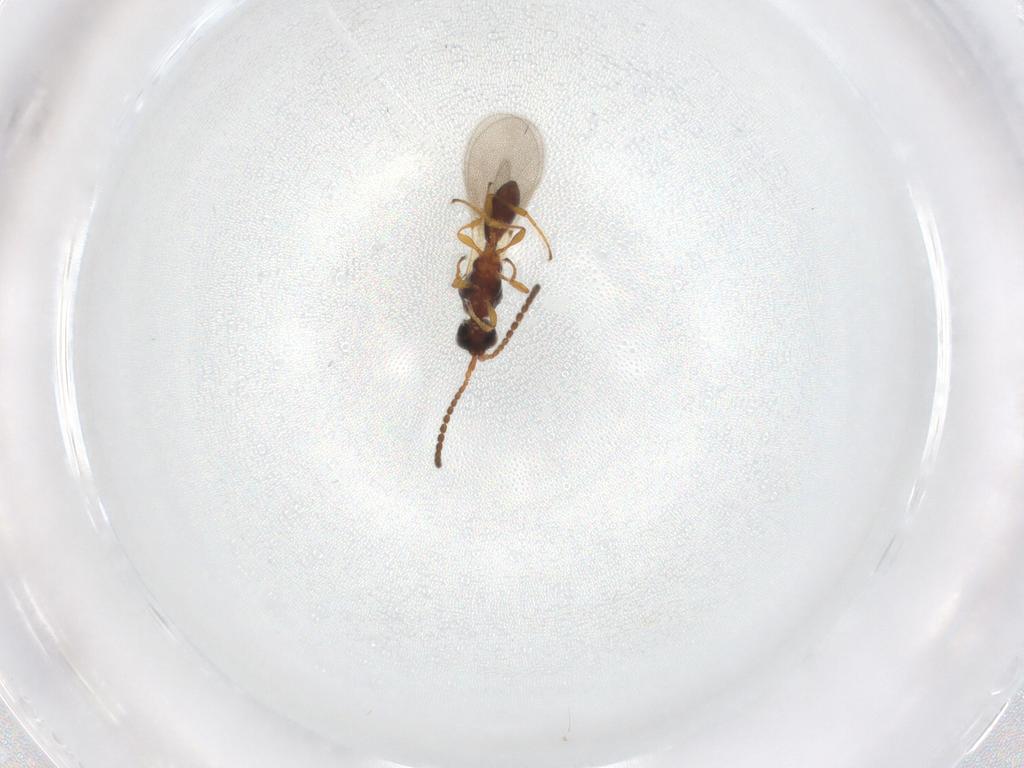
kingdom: Animalia
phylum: Arthropoda
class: Insecta
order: Hymenoptera
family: Diapriidae
